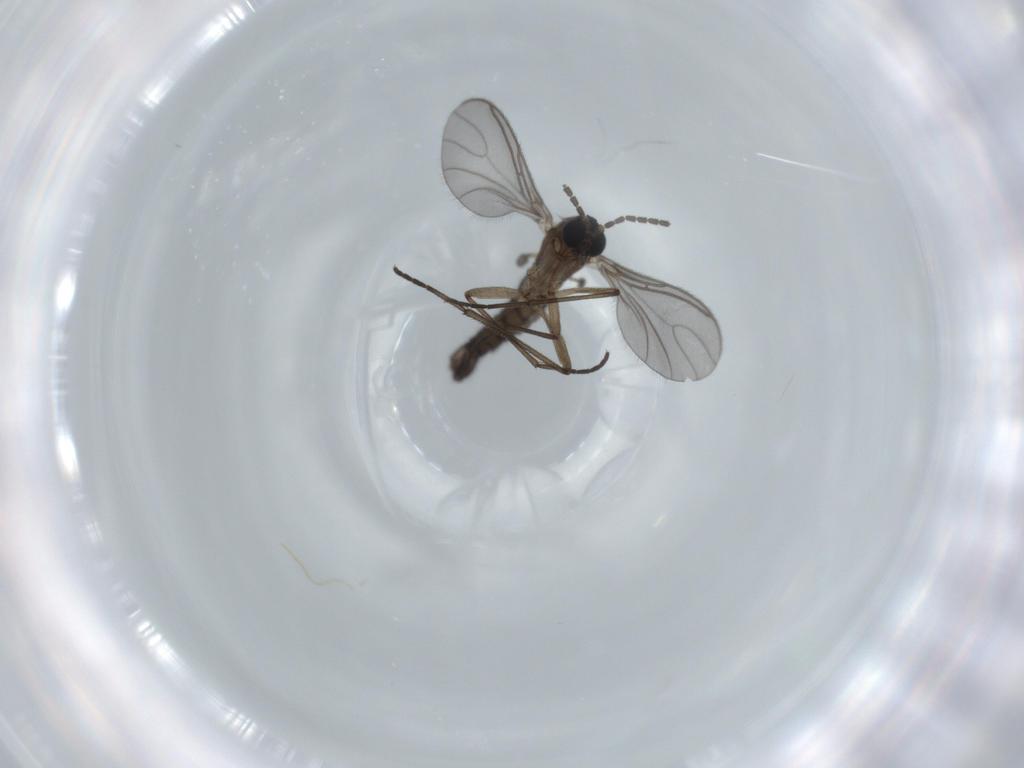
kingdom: Animalia
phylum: Arthropoda
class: Insecta
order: Diptera
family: Sciaridae
